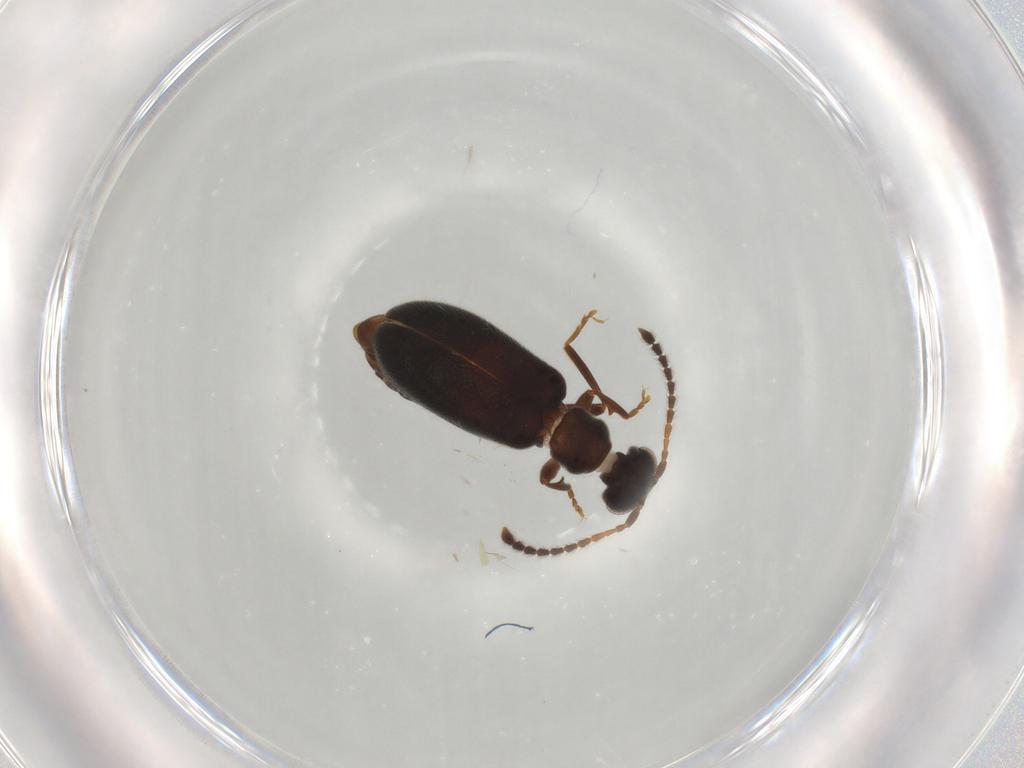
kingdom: Animalia
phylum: Arthropoda
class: Insecta
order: Coleoptera
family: Aderidae
